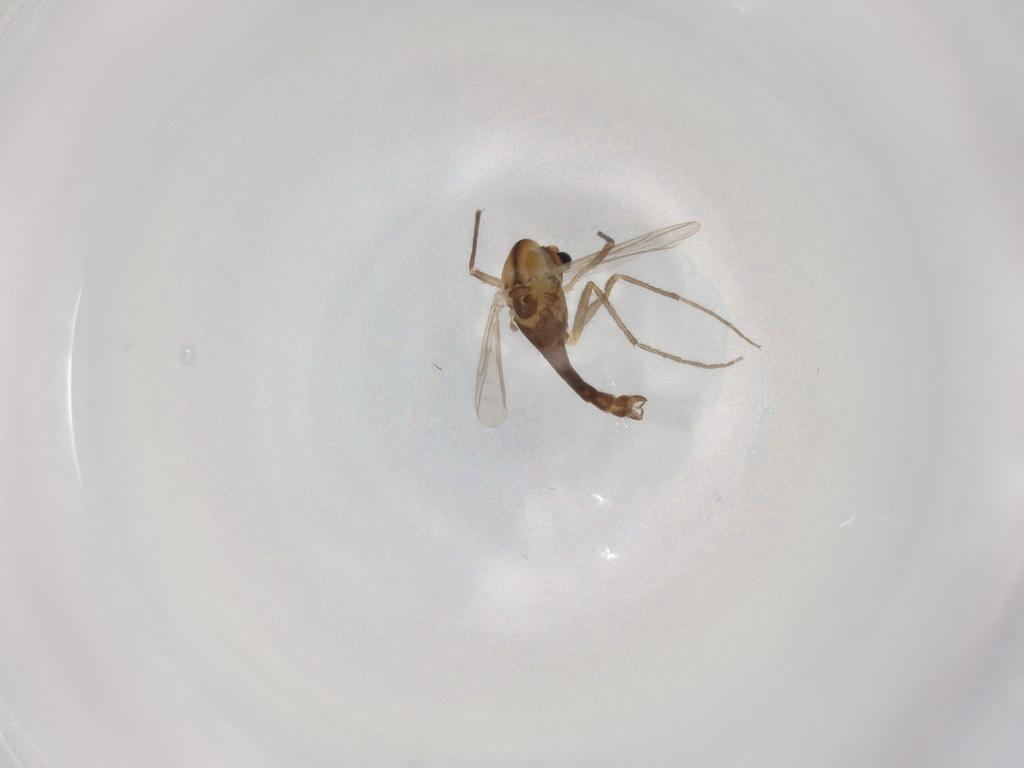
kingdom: Animalia
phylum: Arthropoda
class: Insecta
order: Diptera
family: Chironomidae
